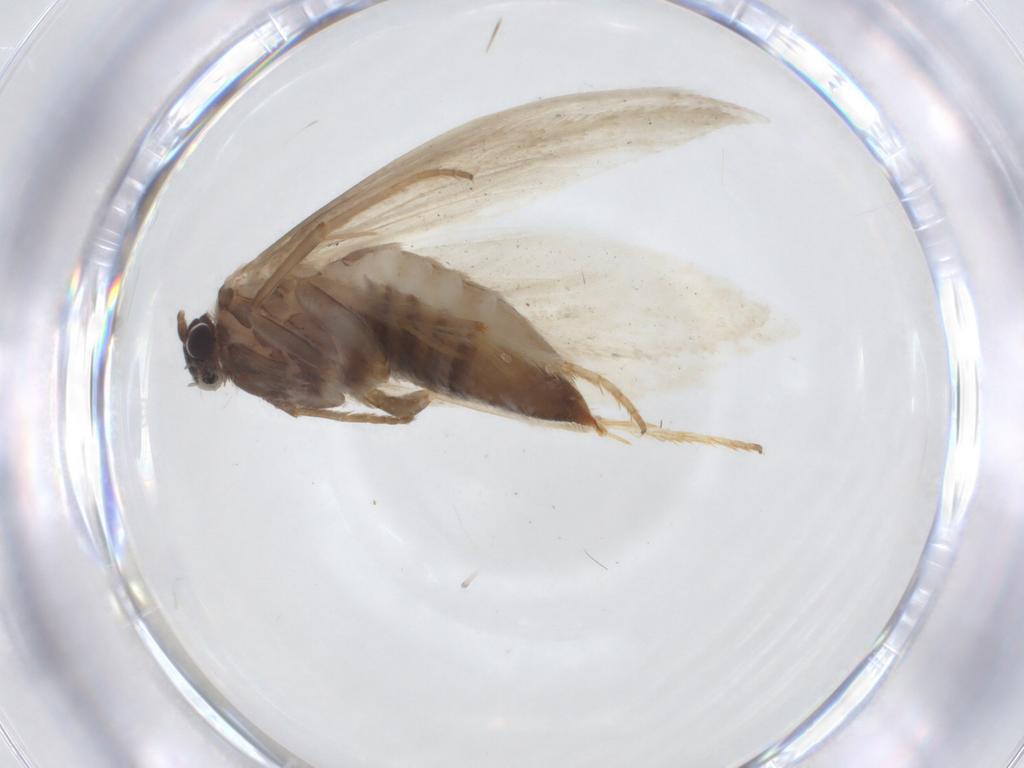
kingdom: Animalia
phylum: Arthropoda
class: Insecta
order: Lepidoptera
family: Tridentaformidae
